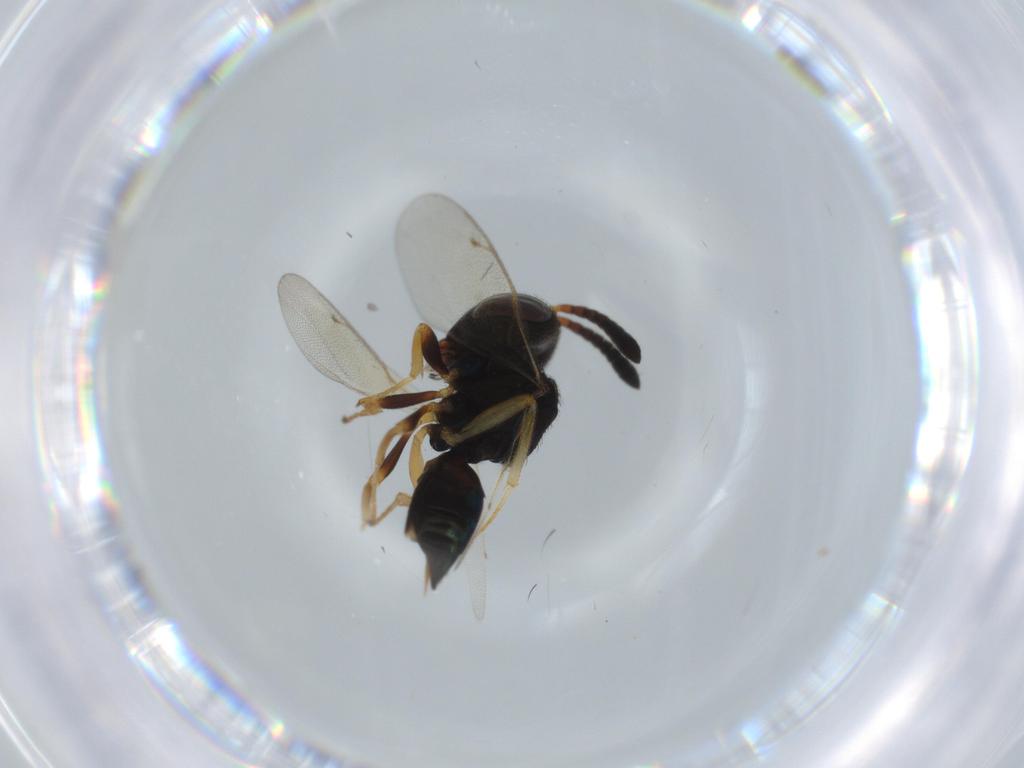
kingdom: Animalia
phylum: Arthropoda
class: Insecta
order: Hymenoptera
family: Pteromalidae
